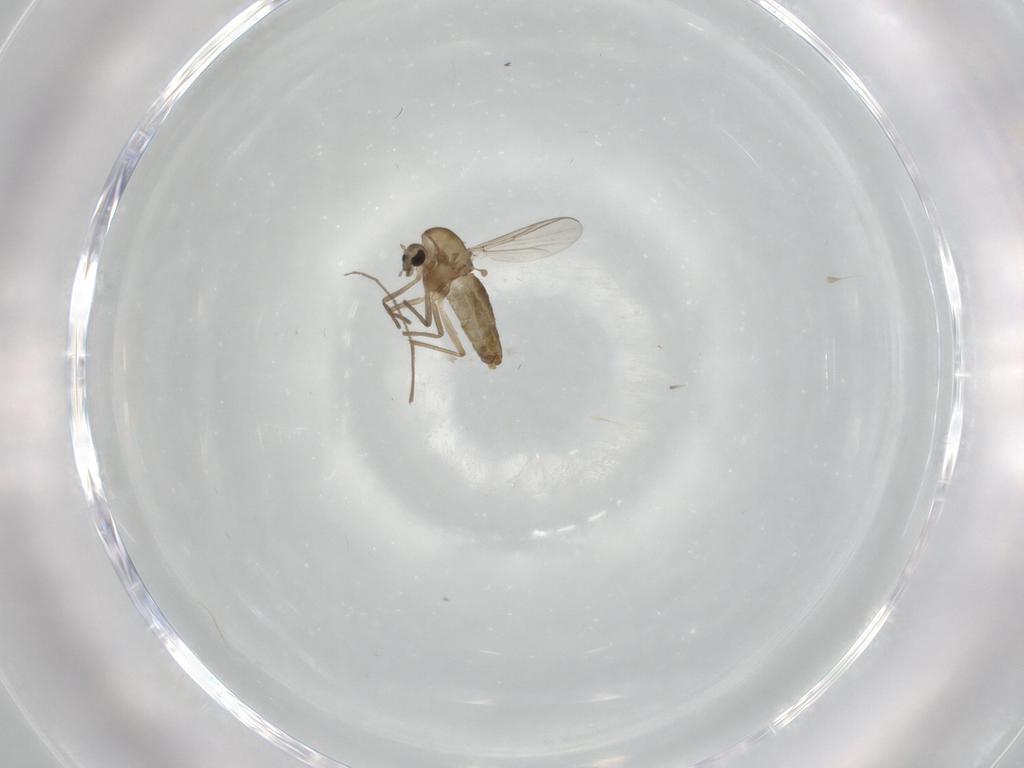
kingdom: Animalia
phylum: Arthropoda
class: Insecta
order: Diptera
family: Chironomidae
